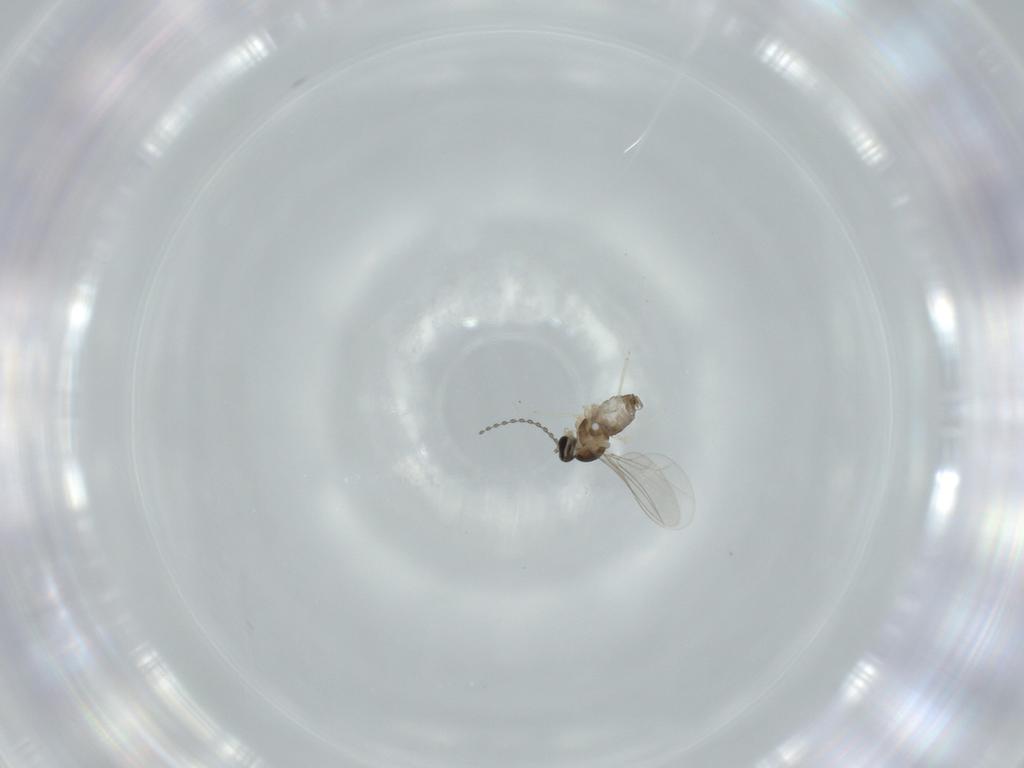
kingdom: Animalia
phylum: Arthropoda
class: Insecta
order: Diptera
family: Cecidomyiidae
